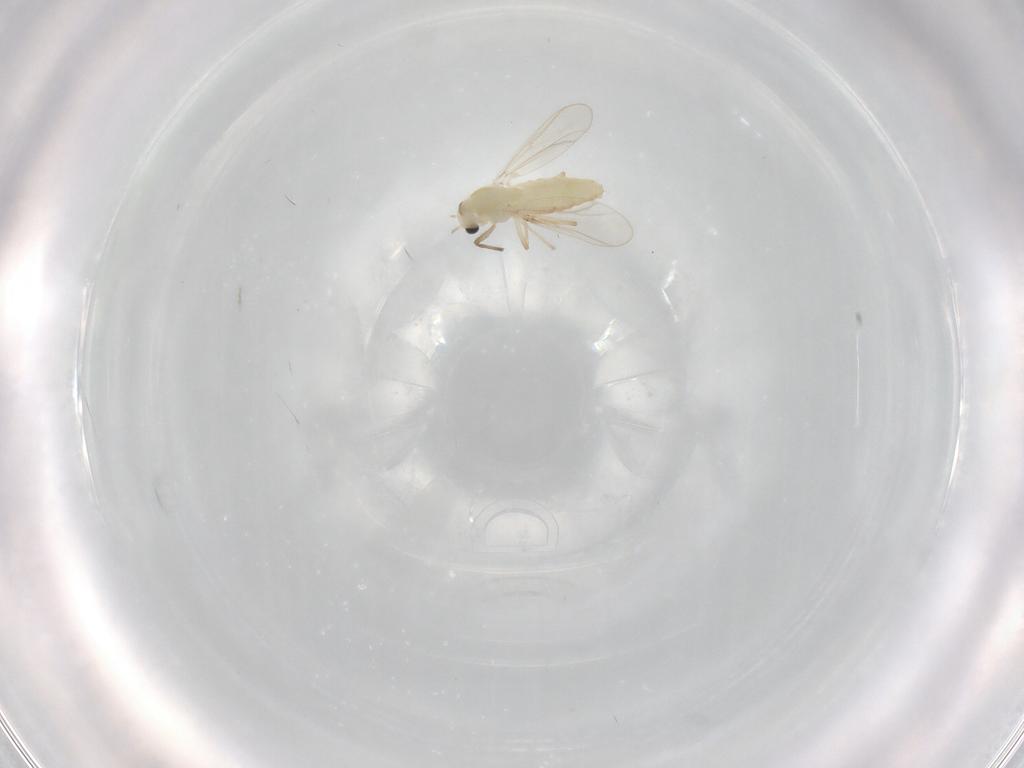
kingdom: Animalia
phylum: Arthropoda
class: Insecta
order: Diptera
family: Chironomidae
